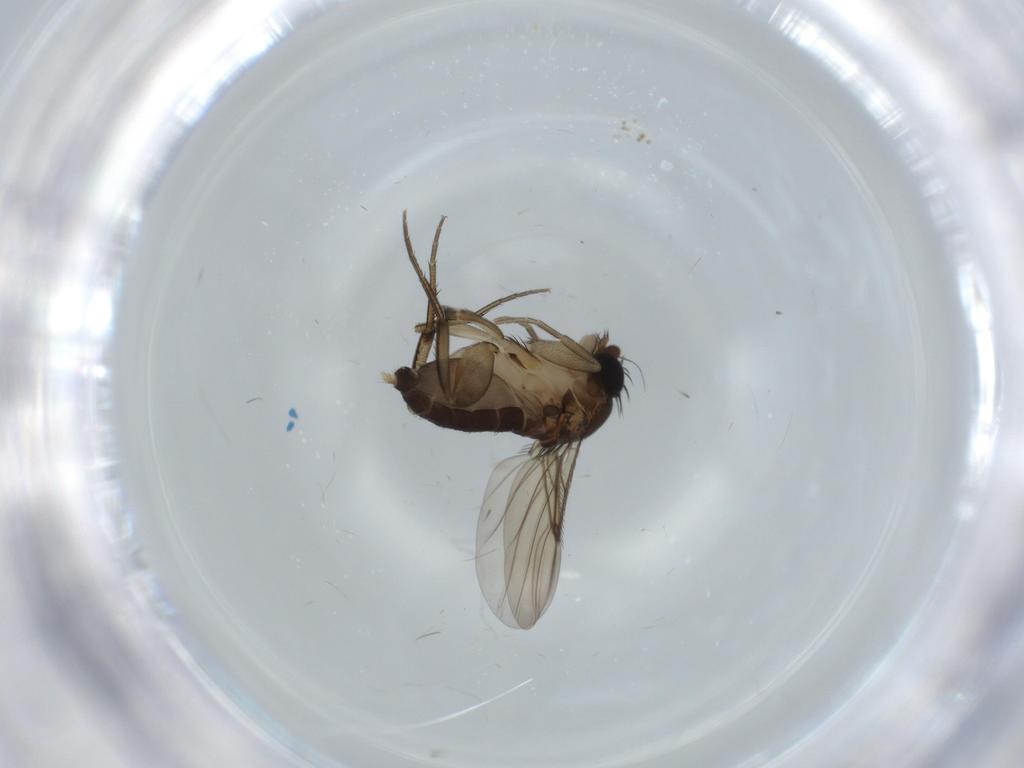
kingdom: Animalia
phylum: Arthropoda
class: Insecta
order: Diptera
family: Phoridae
